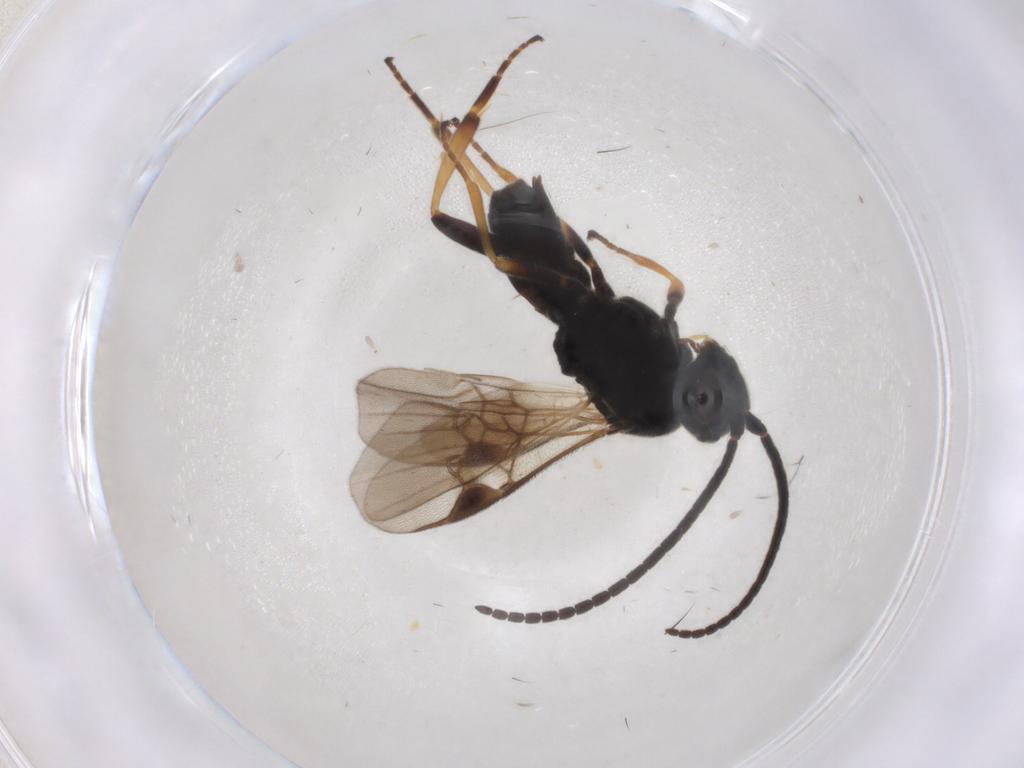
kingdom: Animalia
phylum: Arthropoda
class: Insecta
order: Hymenoptera
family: Braconidae
